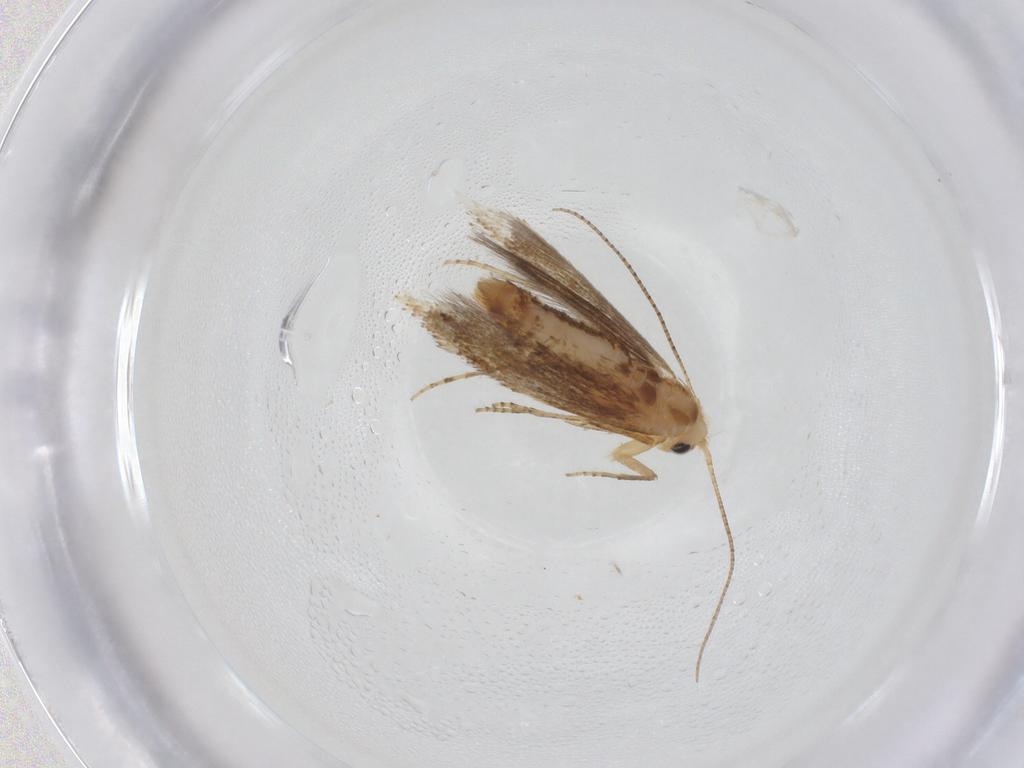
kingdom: Animalia
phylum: Arthropoda
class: Insecta
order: Lepidoptera
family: Bucculatricidae
